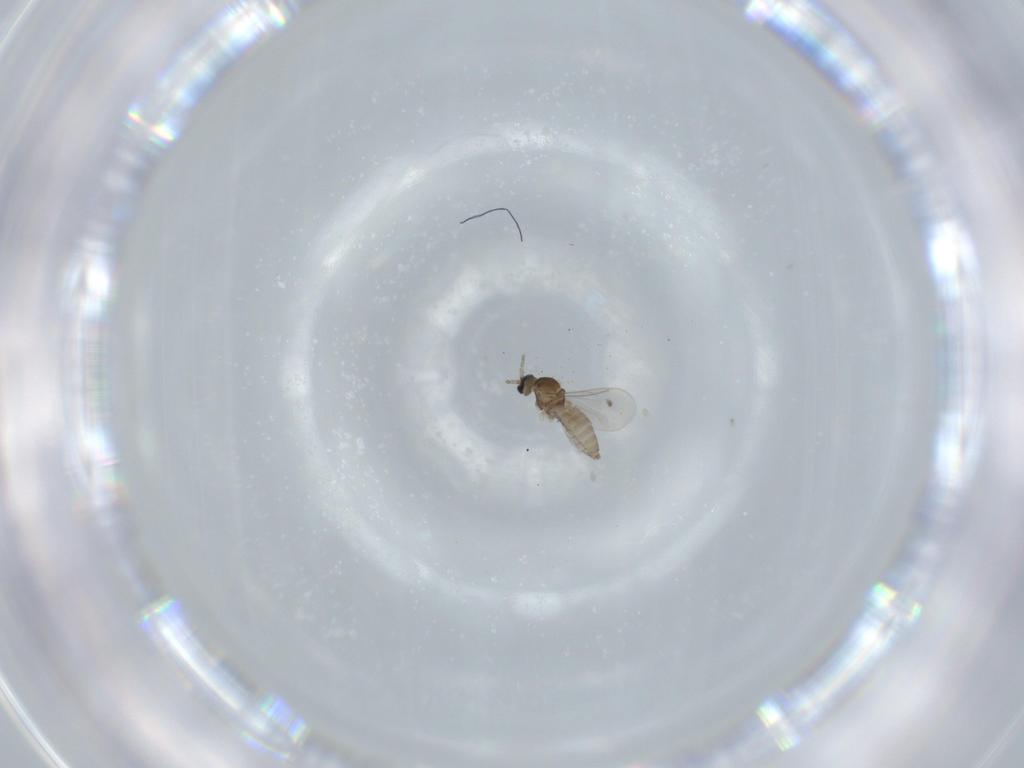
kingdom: Animalia
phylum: Arthropoda
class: Insecta
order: Diptera
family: Cecidomyiidae
